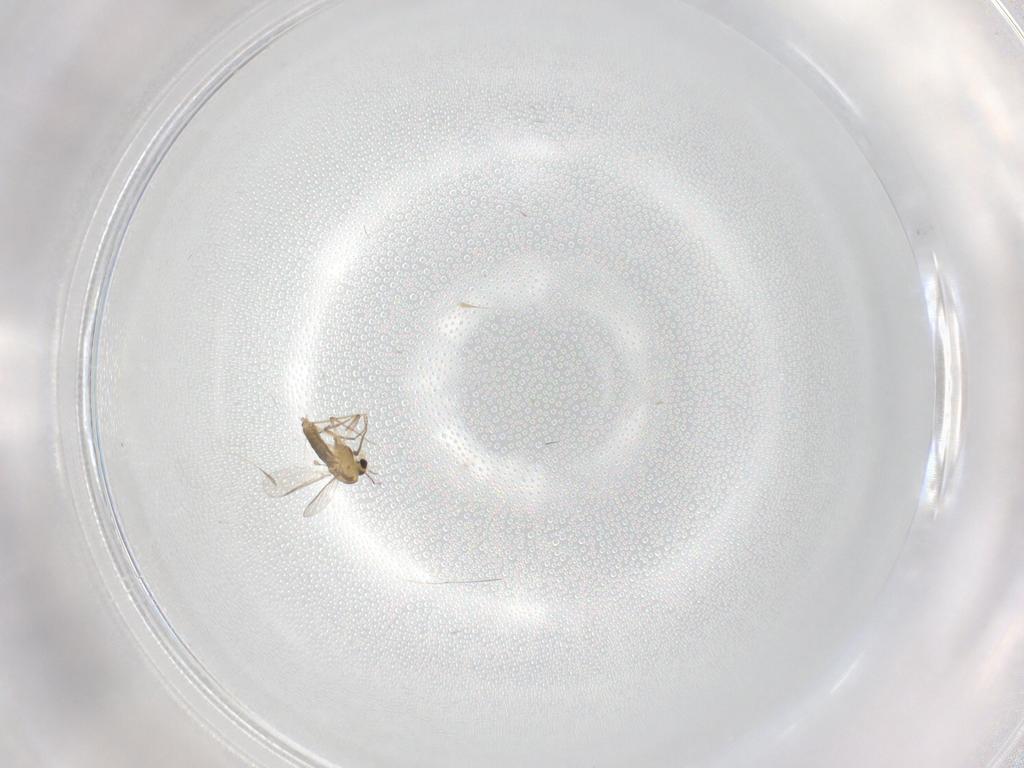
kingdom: Animalia
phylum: Arthropoda
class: Insecta
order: Diptera
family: Chironomidae
